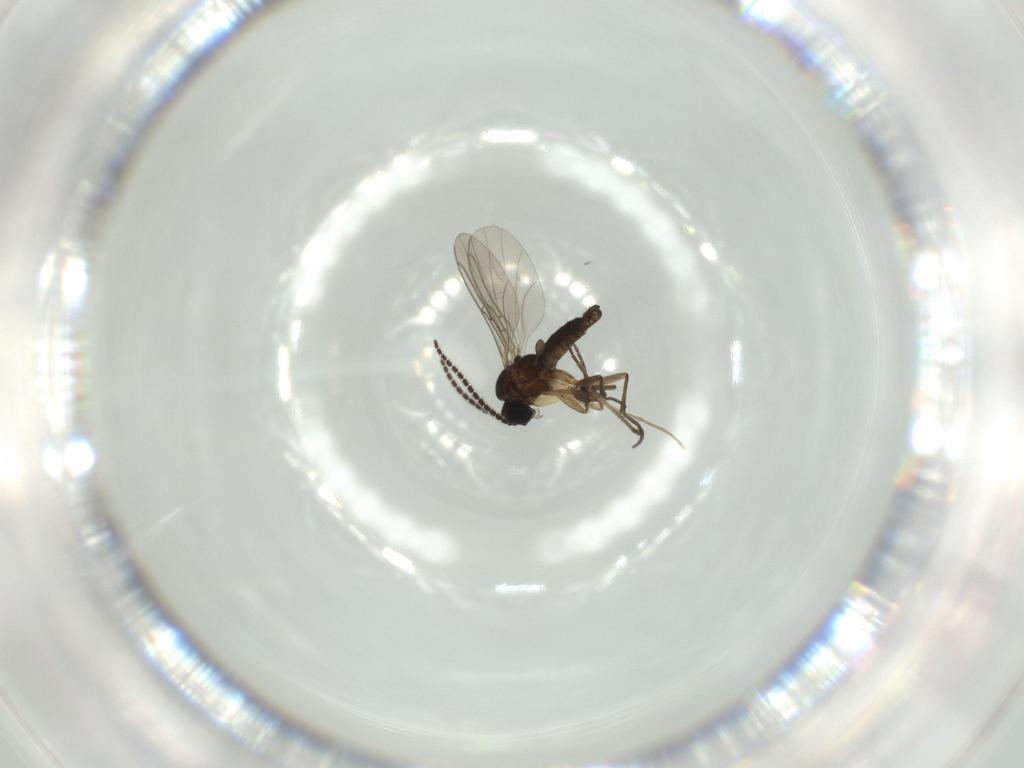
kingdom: Animalia
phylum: Arthropoda
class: Insecta
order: Diptera
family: Sciaridae
